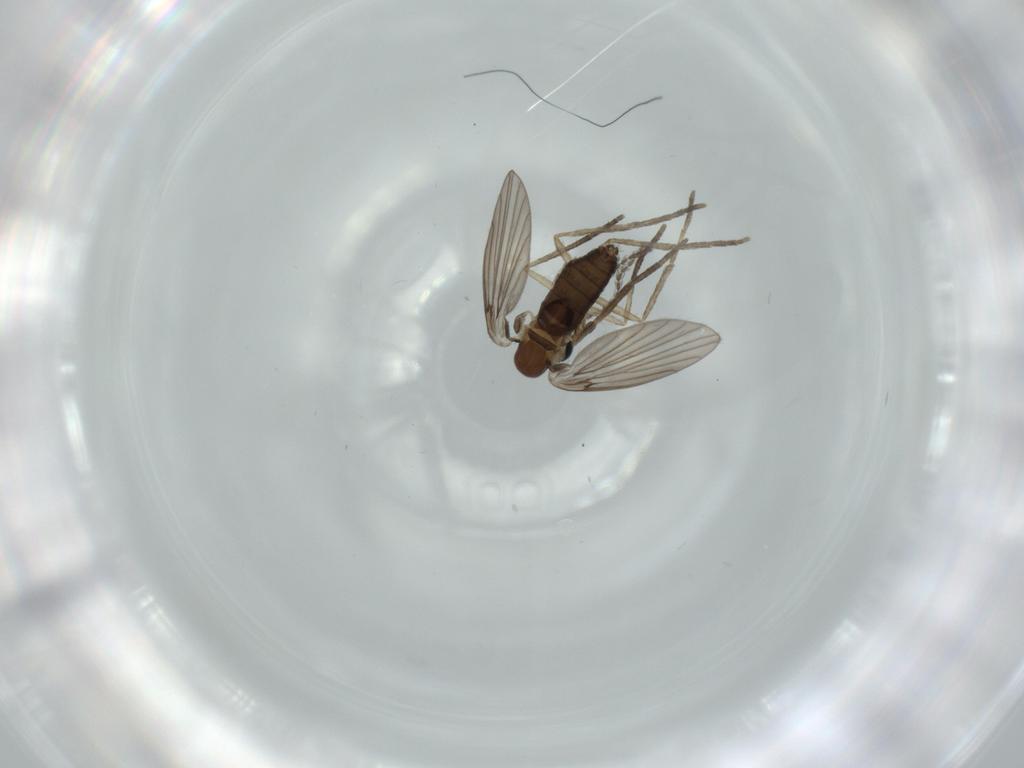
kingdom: Animalia
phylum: Arthropoda
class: Insecta
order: Diptera
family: Psychodidae
